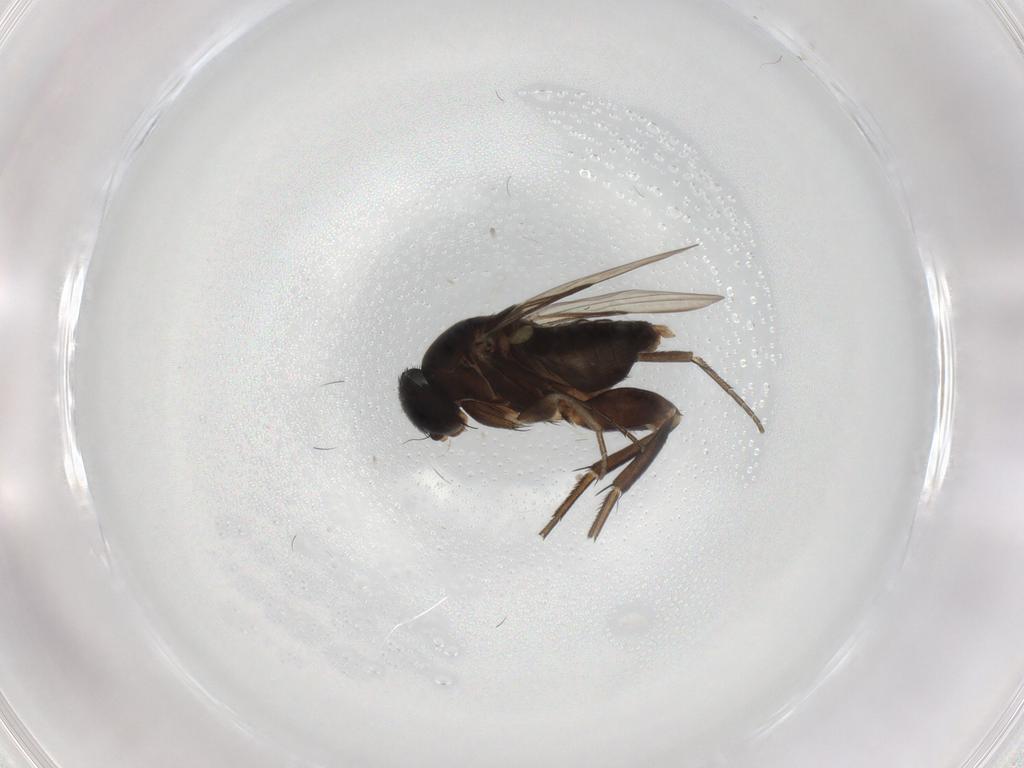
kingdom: Animalia
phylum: Arthropoda
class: Insecta
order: Diptera
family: Phoridae
